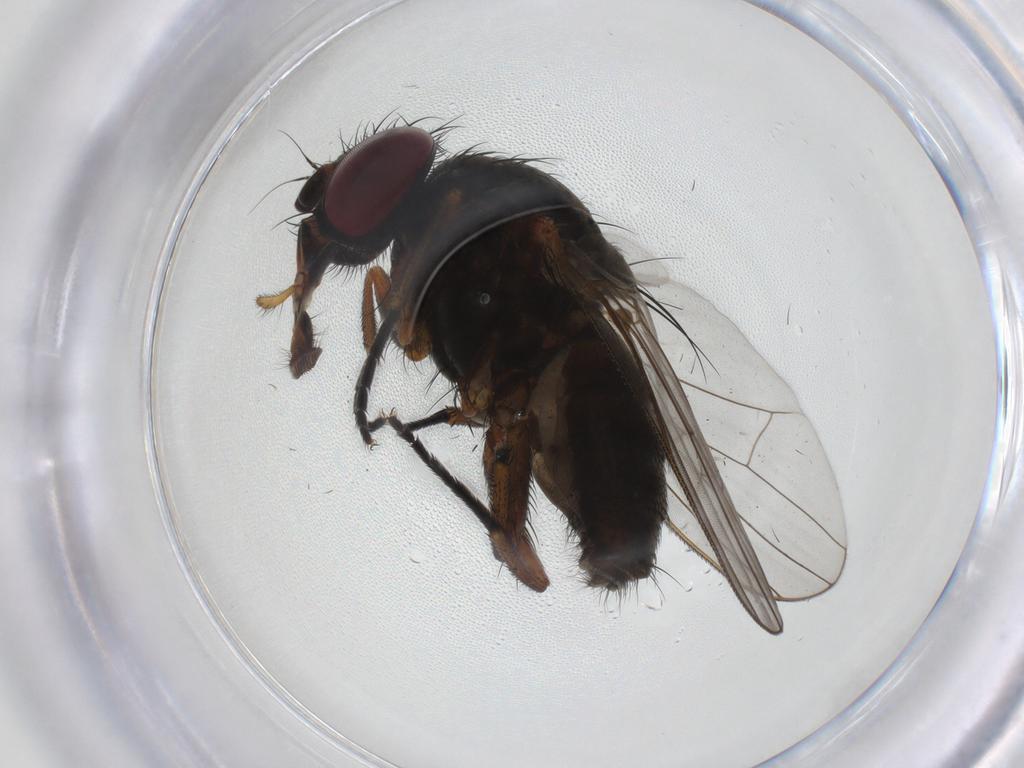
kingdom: Animalia
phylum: Arthropoda
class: Insecta
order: Diptera
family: Fannia
